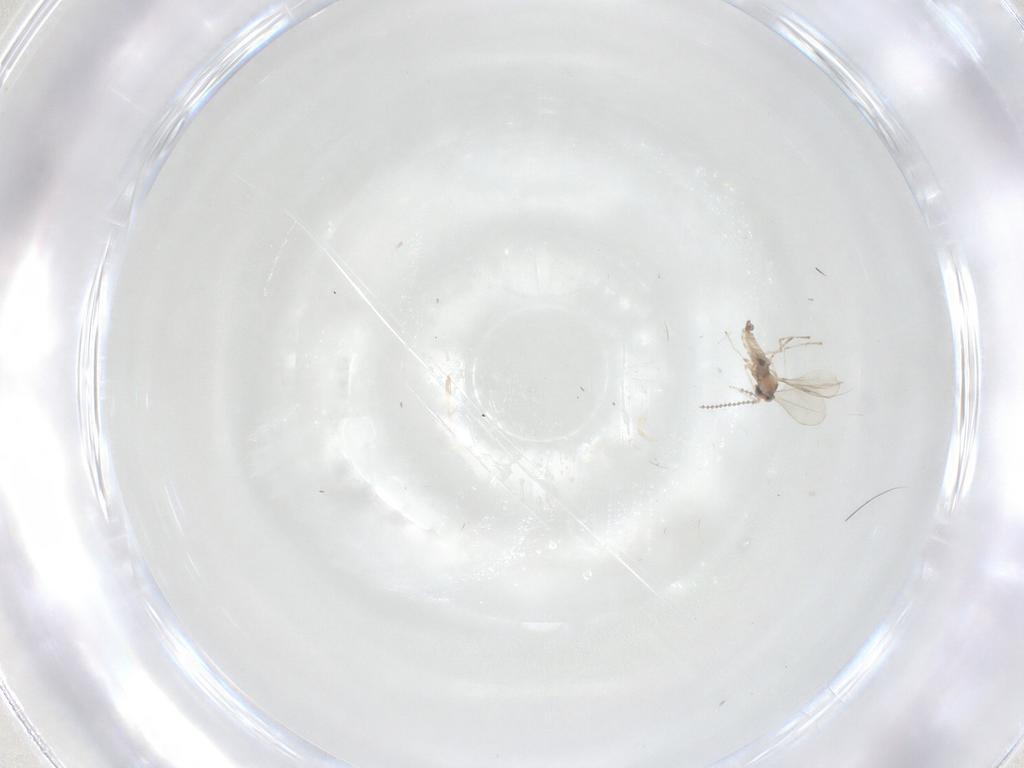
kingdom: Animalia
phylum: Arthropoda
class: Insecta
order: Diptera
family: Cecidomyiidae
